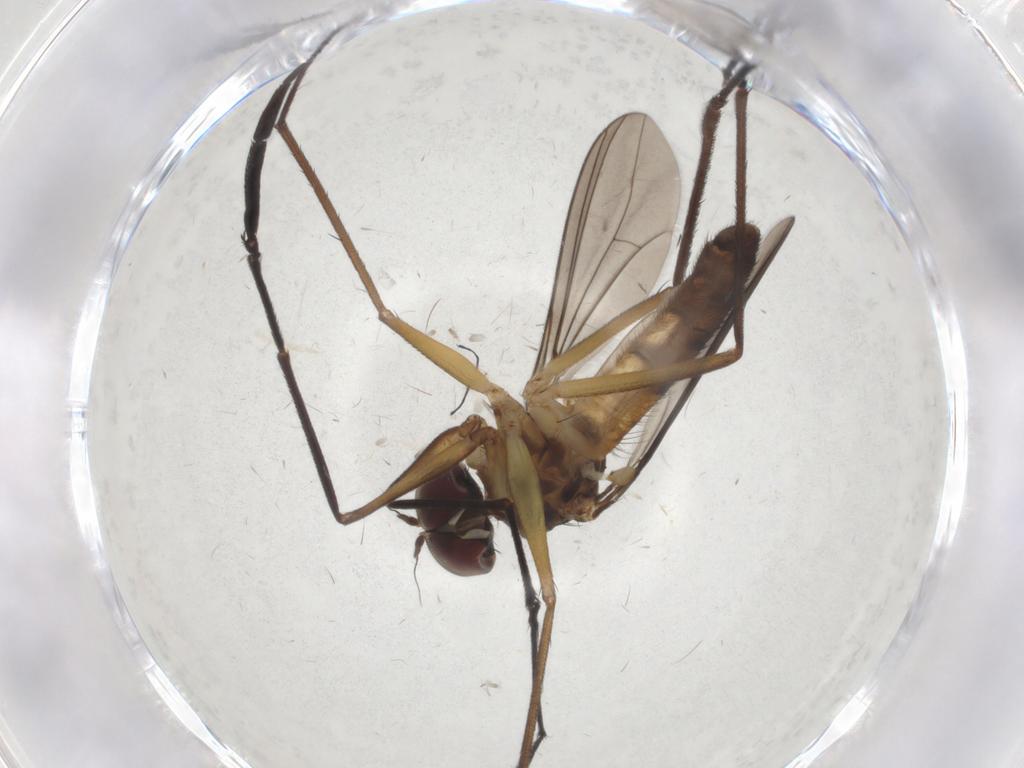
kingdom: Animalia
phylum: Arthropoda
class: Insecta
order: Diptera
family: Dolichopodidae
